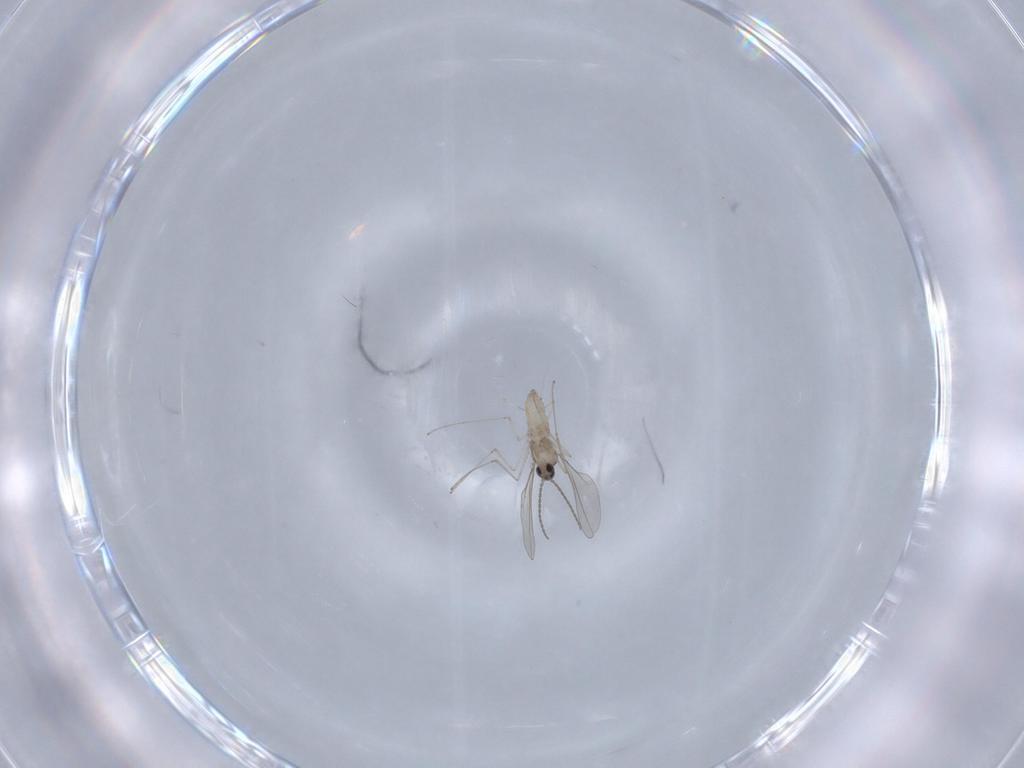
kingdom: Animalia
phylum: Arthropoda
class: Insecta
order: Diptera
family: Cecidomyiidae
